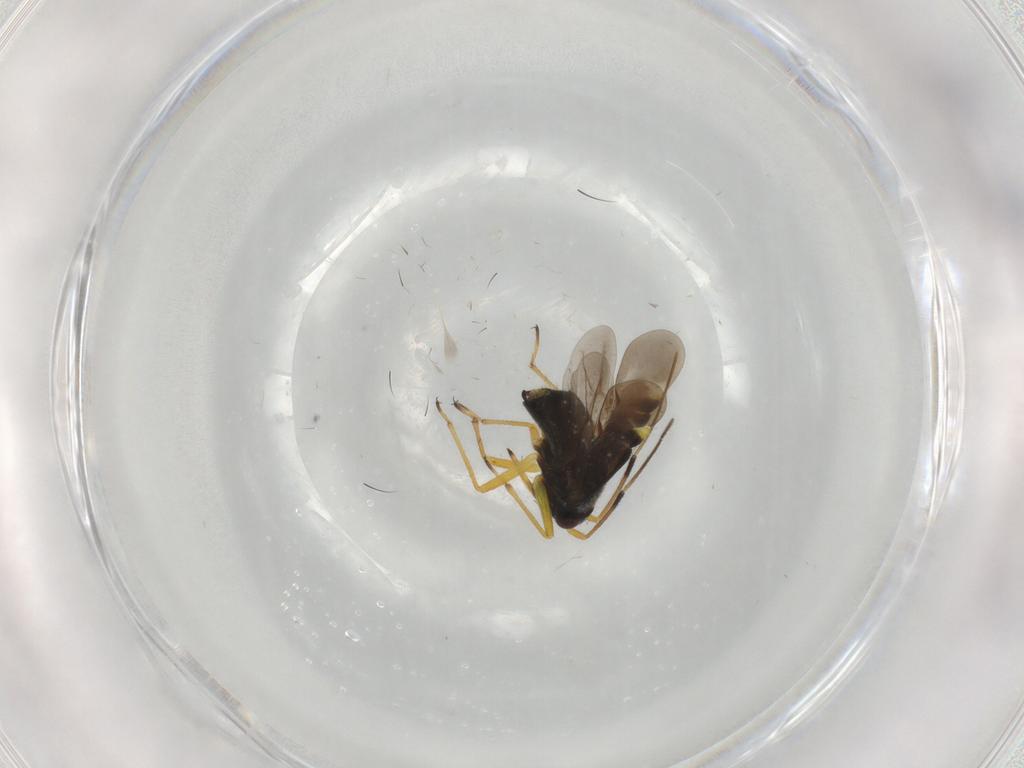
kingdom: Animalia
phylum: Arthropoda
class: Insecta
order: Hemiptera
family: Miridae
